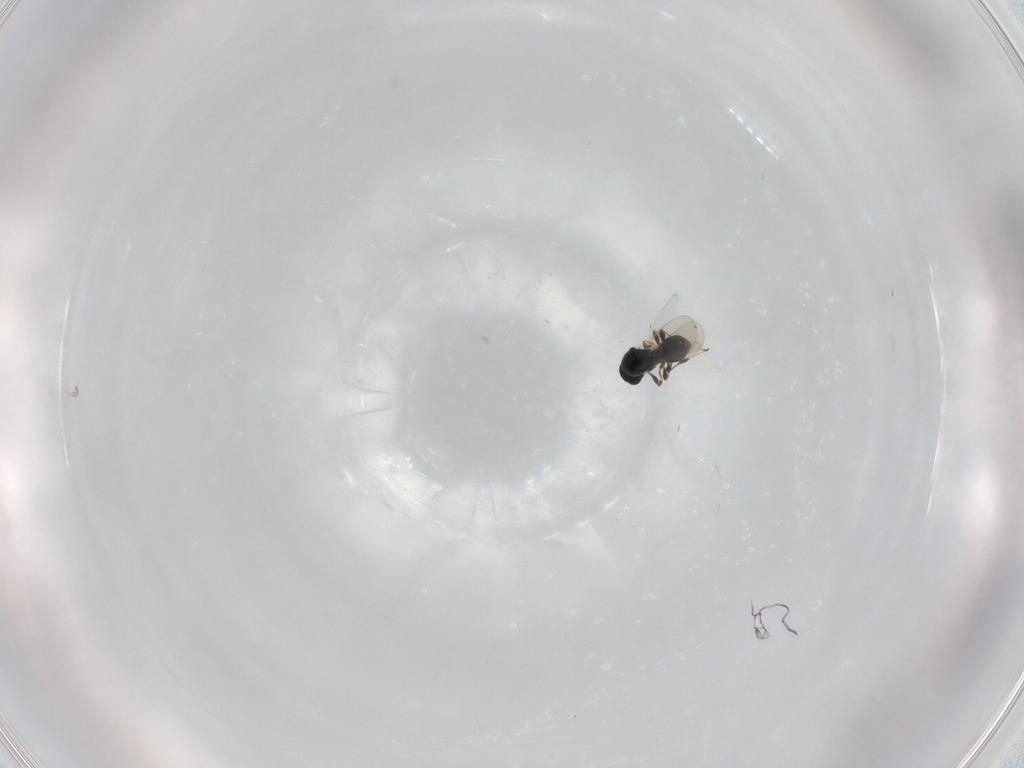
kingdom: Animalia
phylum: Arthropoda
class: Insecta
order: Hymenoptera
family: Platygastridae
